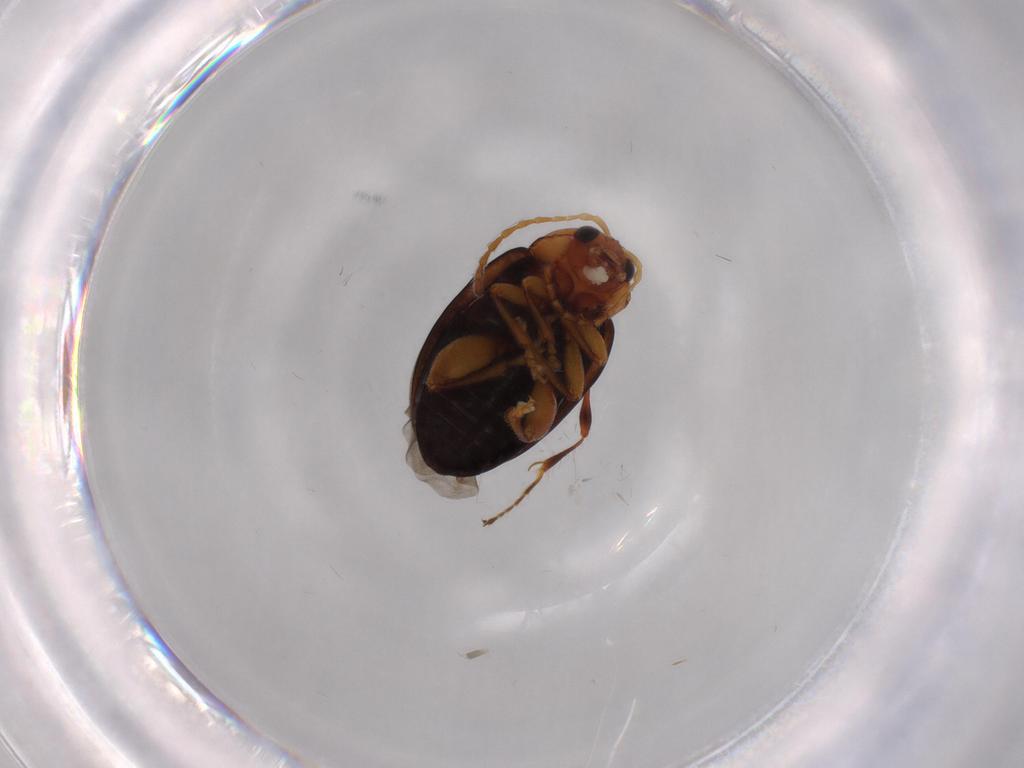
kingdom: Animalia
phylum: Arthropoda
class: Insecta
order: Coleoptera
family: Chrysomelidae
